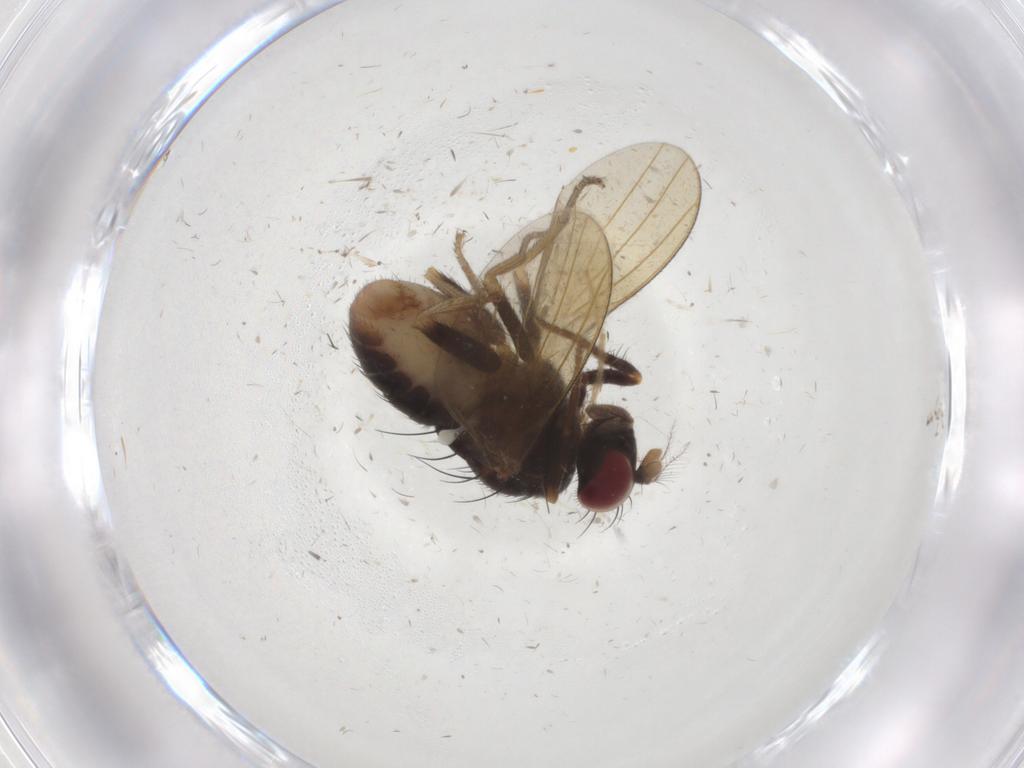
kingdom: Animalia
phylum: Arthropoda
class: Insecta
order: Diptera
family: Lauxaniidae
